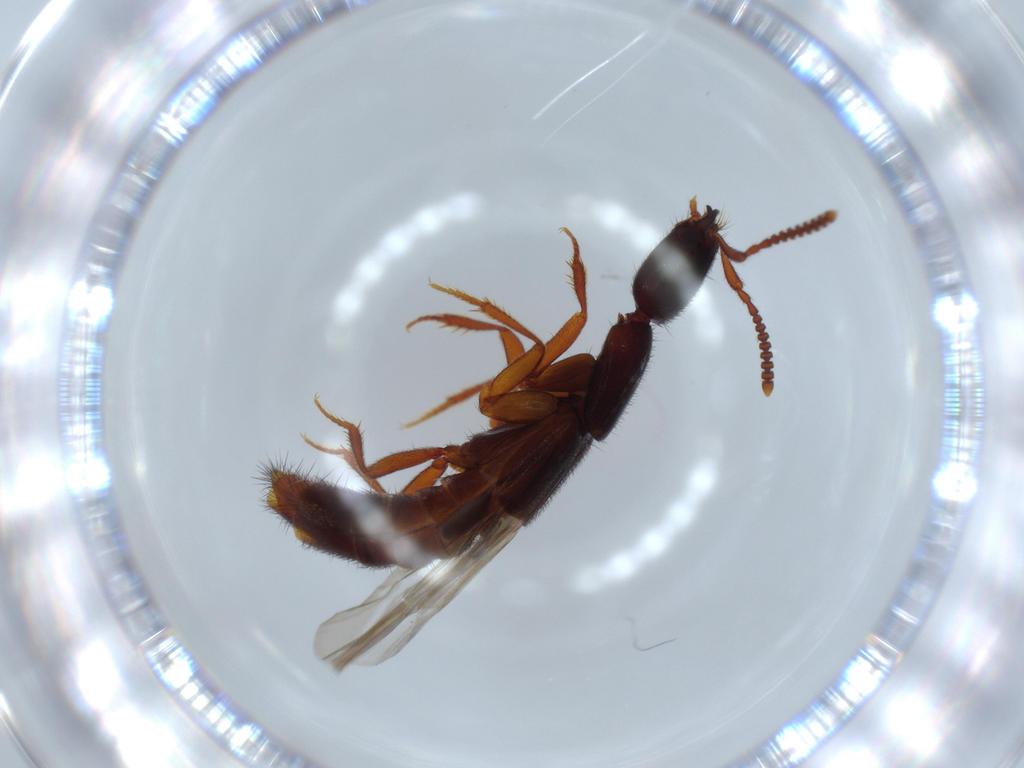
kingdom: Animalia
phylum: Arthropoda
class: Insecta
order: Coleoptera
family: Staphylinidae
